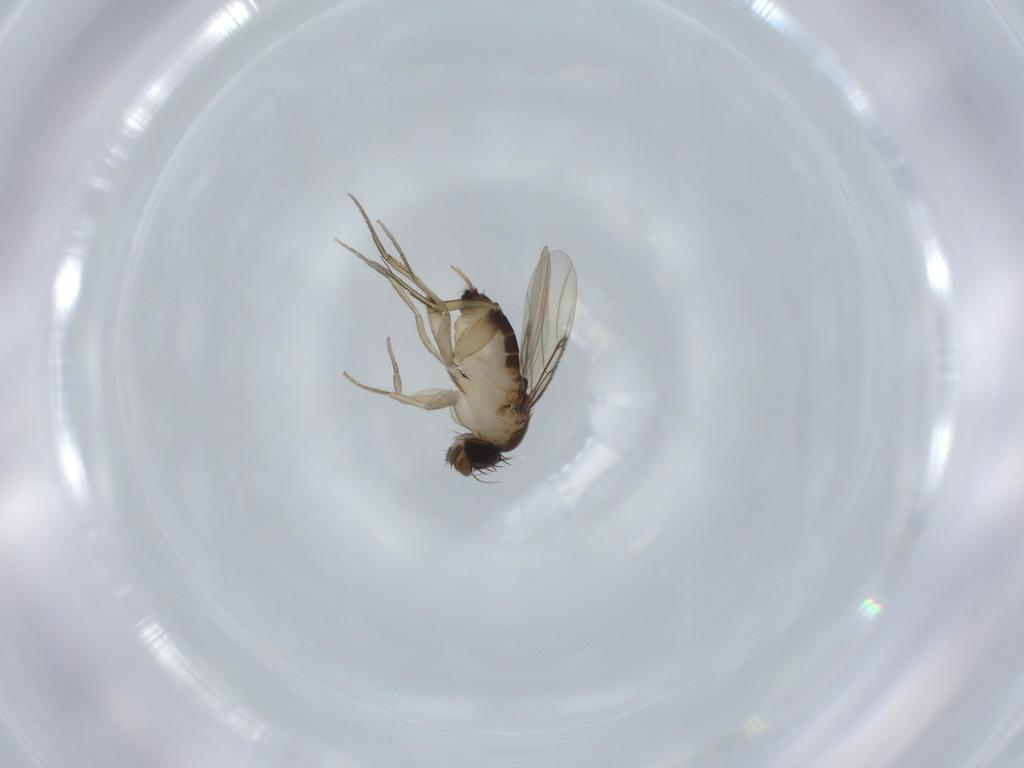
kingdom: Animalia
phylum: Arthropoda
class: Insecta
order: Diptera
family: Phoridae
